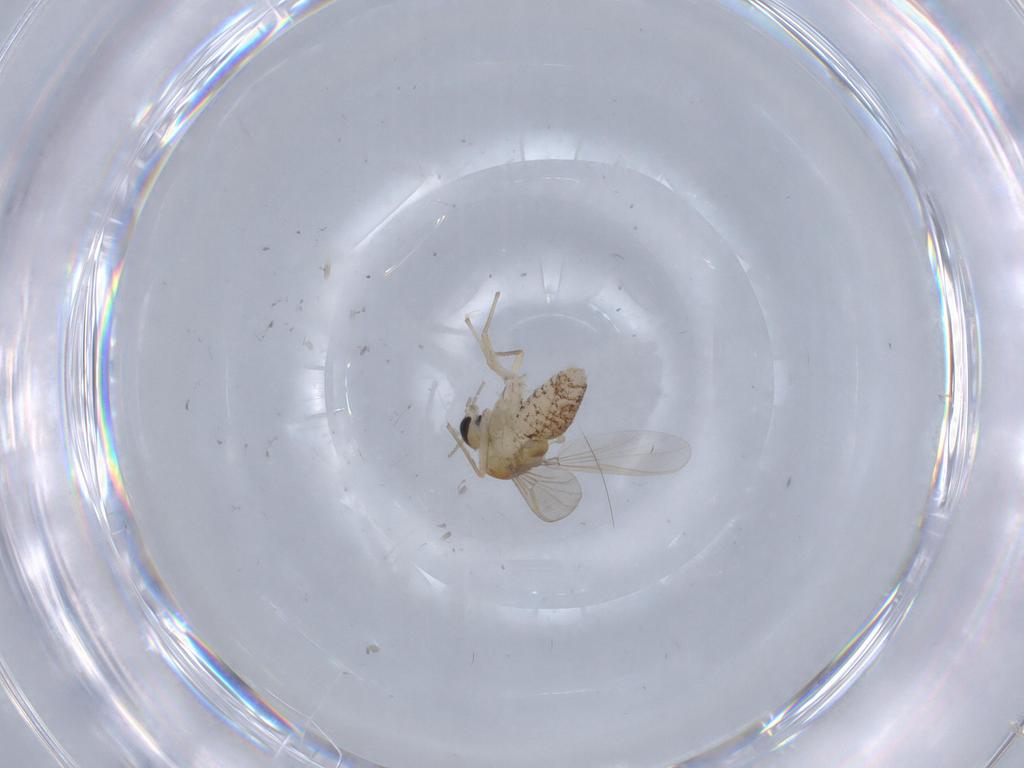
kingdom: Animalia
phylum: Arthropoda
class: Insecta
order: Diptera
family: Chironomidae
